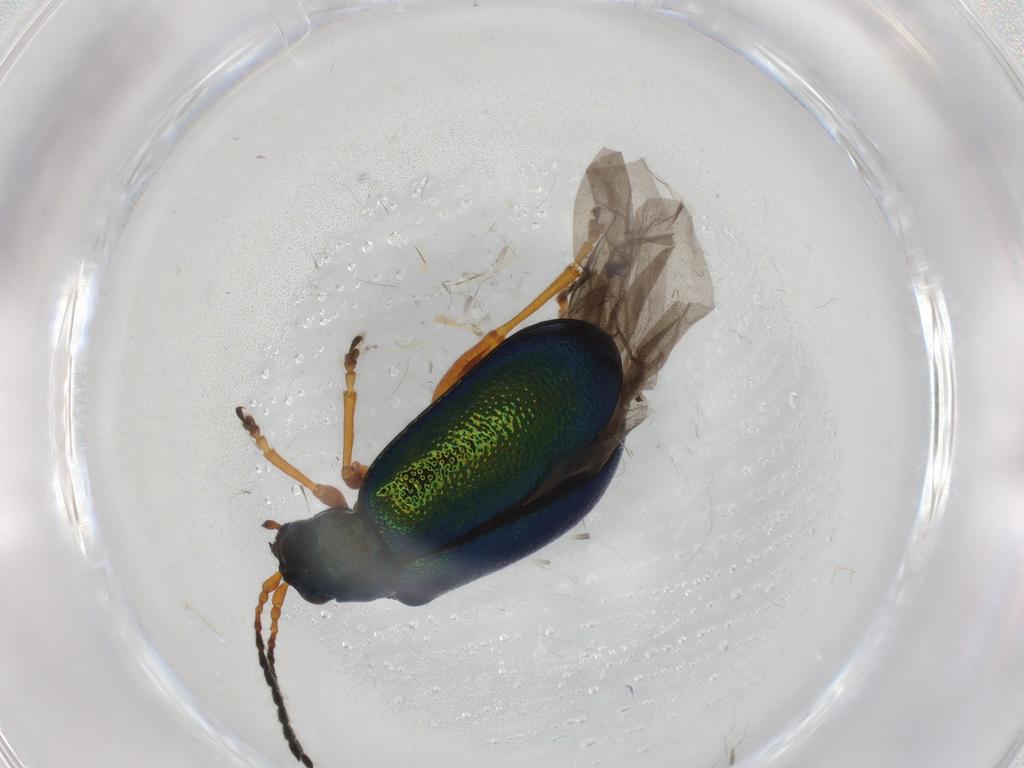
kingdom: Animalia
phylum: Arthropoda
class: Insecta
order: Coleoptera
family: Chrysomelidae
